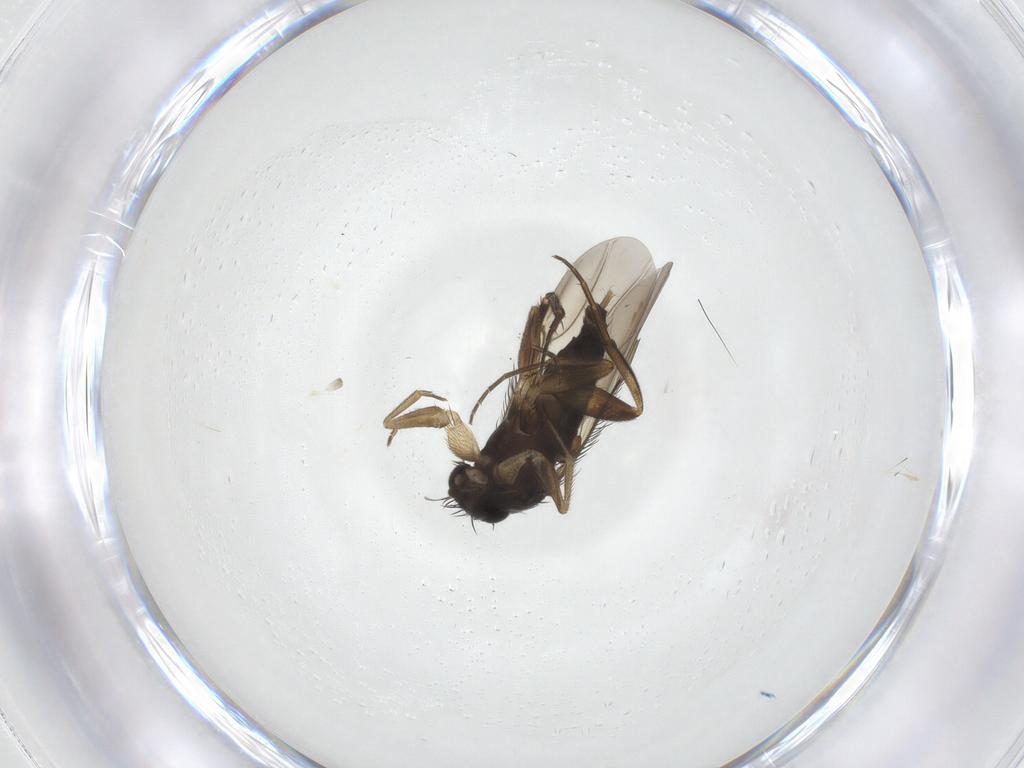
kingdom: Animalia
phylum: Arthropoda
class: Insecta
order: Diptera
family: Phoridae
